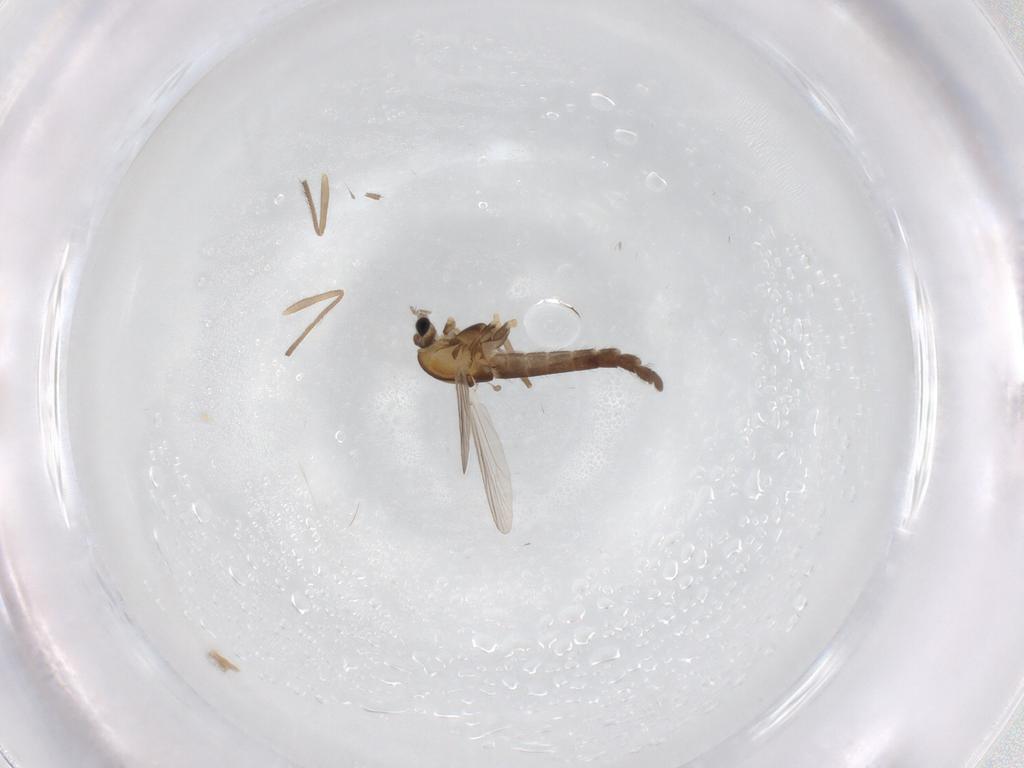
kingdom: Animalia
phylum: Arthropoda
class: Insecta
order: Diptera
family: Chironomidae
